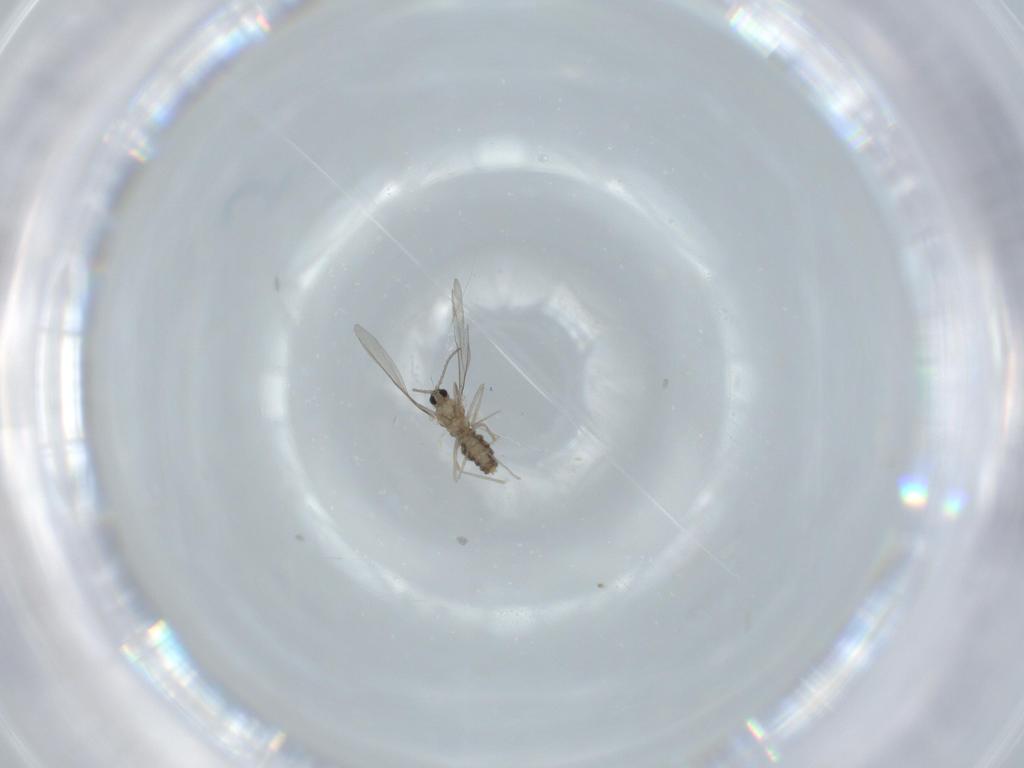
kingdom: Animalia
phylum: Arthropoda
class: Insecta
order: Diptera
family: Cecidomyiidae
